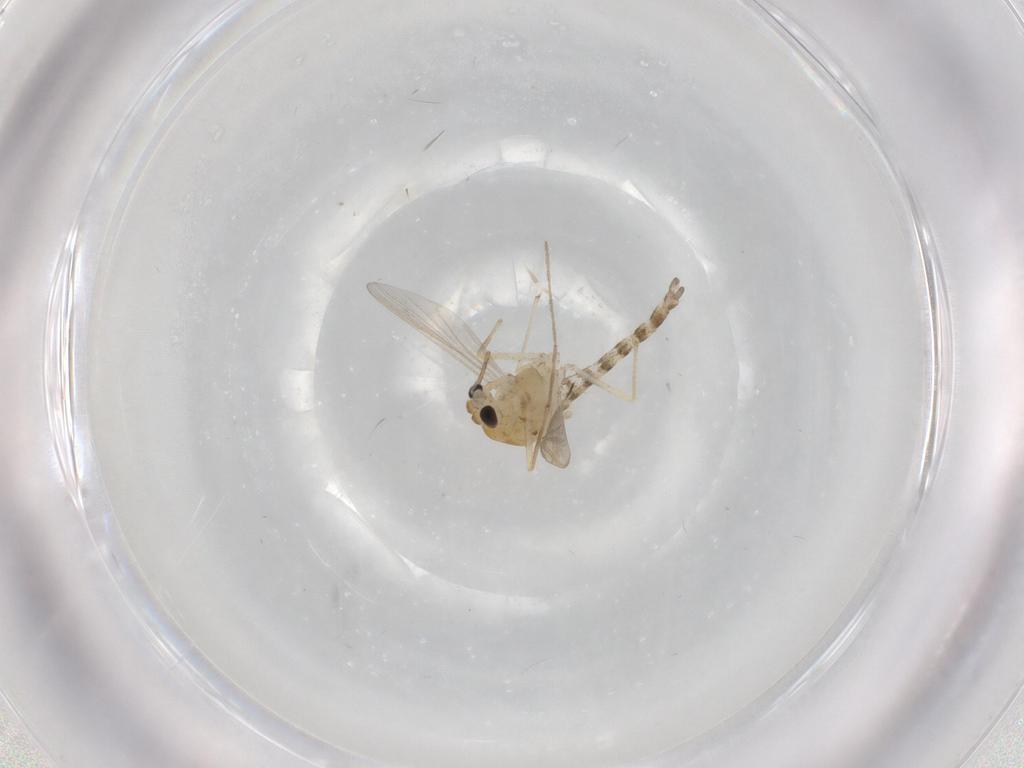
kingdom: Animalia
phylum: Arthropoda
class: Insecta
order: Diptera
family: Chironomidae
